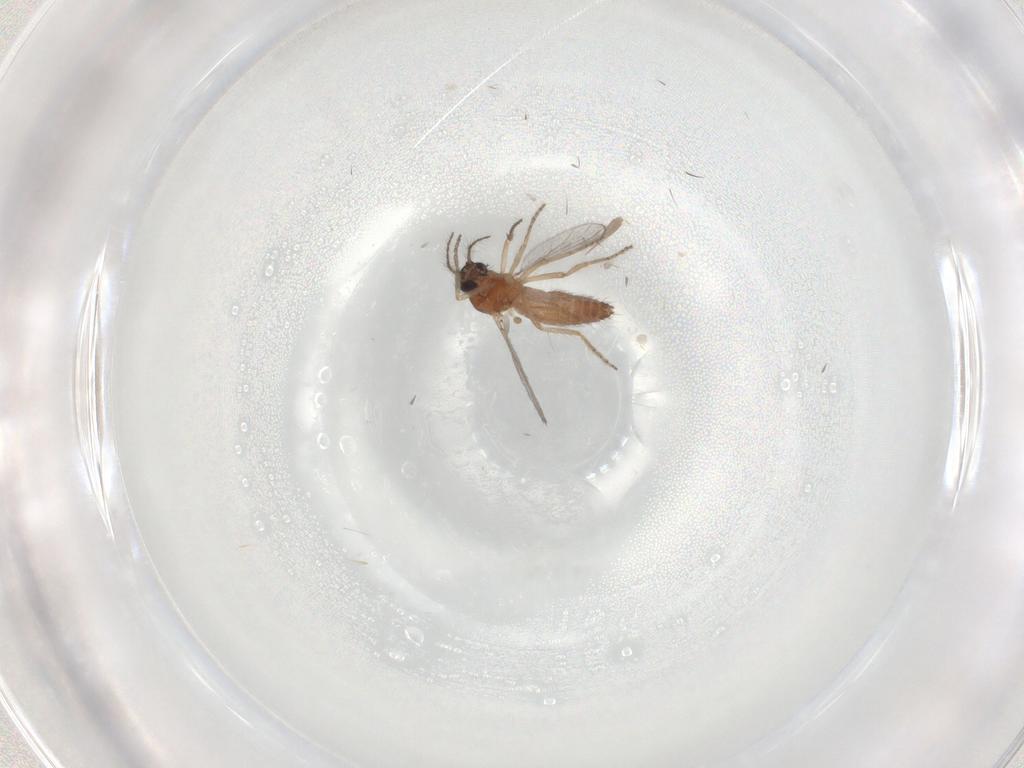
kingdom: Animalia
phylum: Arthropoda
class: Insecta
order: Diptera
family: Ceratopogonidae
